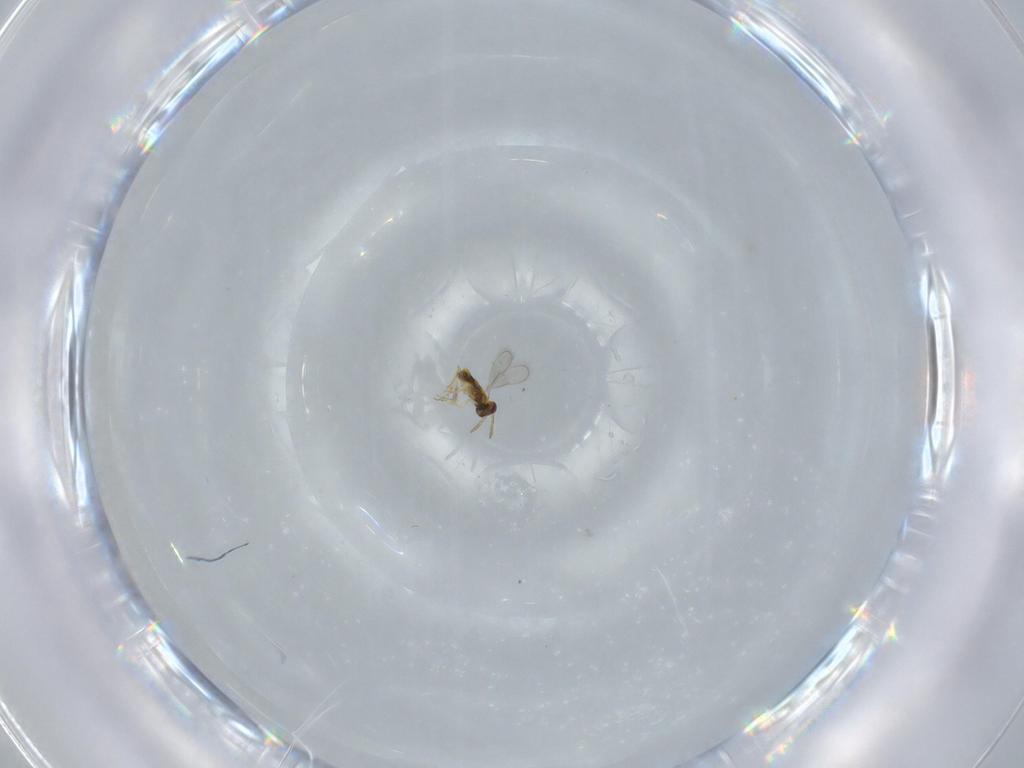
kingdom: Animalia
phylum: Arthropoda
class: Insecta
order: Hymenoptera
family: Aphelinidae
